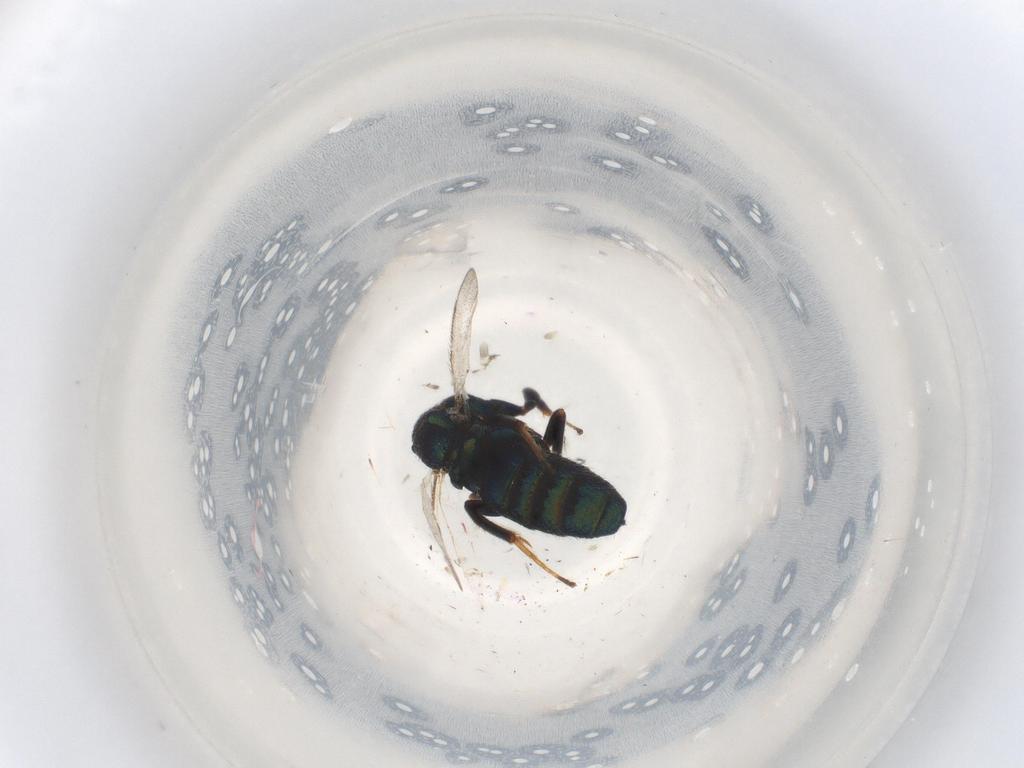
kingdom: Animalia
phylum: Arthropoda
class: Insecta
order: Hymenoptera
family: Ormyridae
